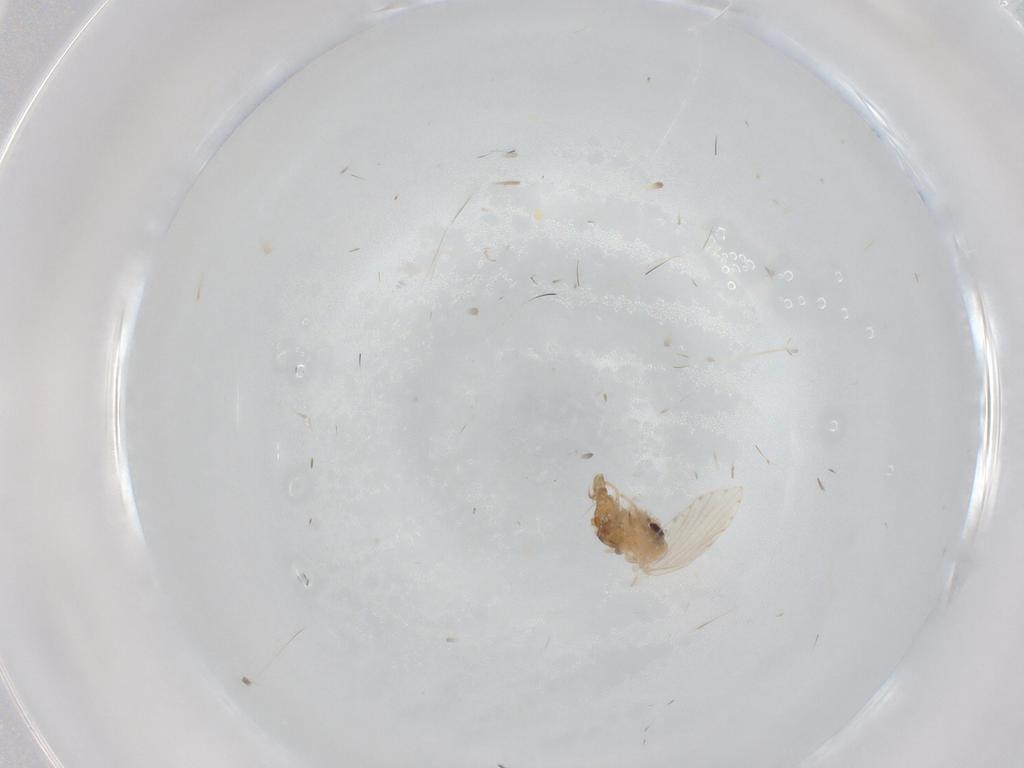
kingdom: Animalia
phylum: Arthropoda
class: Insecta
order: Diptera
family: Psychodidae
